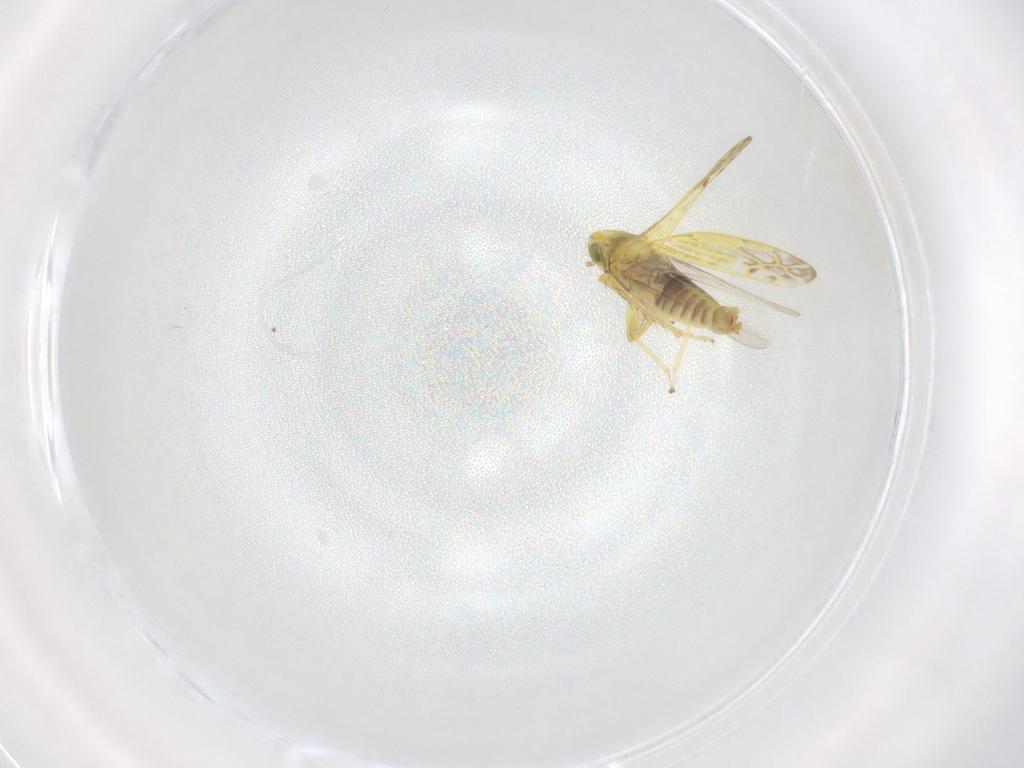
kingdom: Animalia
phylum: Arthropoda
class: Insecta
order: Hemiptera
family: Cicadellidae
